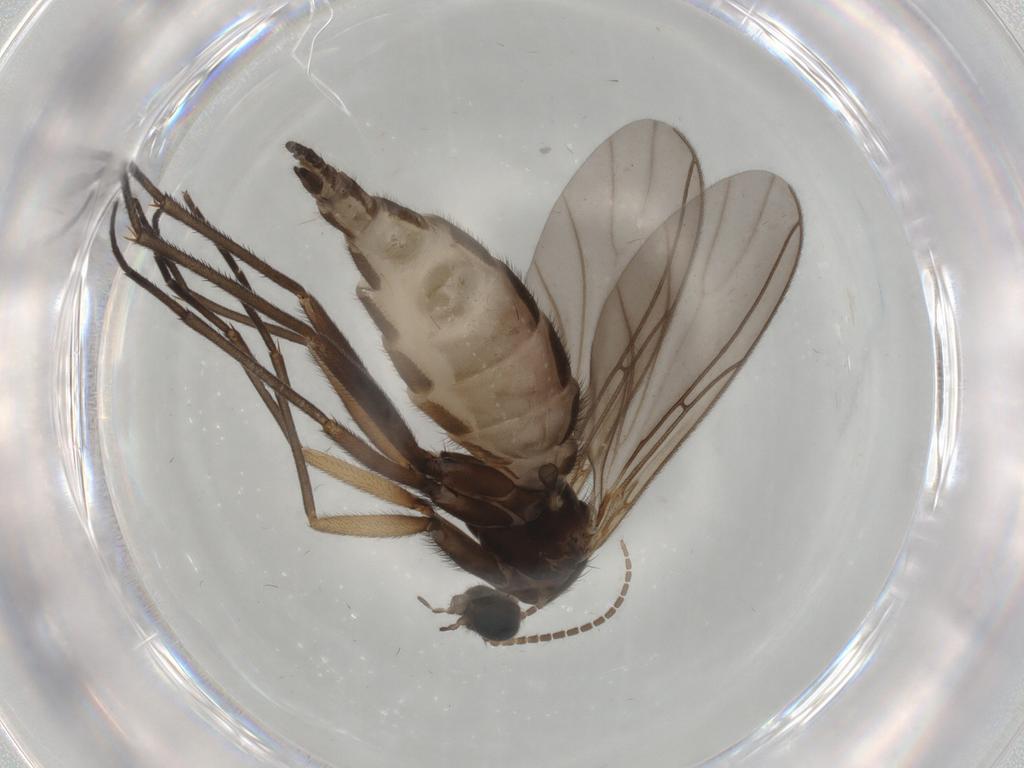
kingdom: Animalia
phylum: Arthropoda
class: Insecta
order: Diptera
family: Sciaridae
